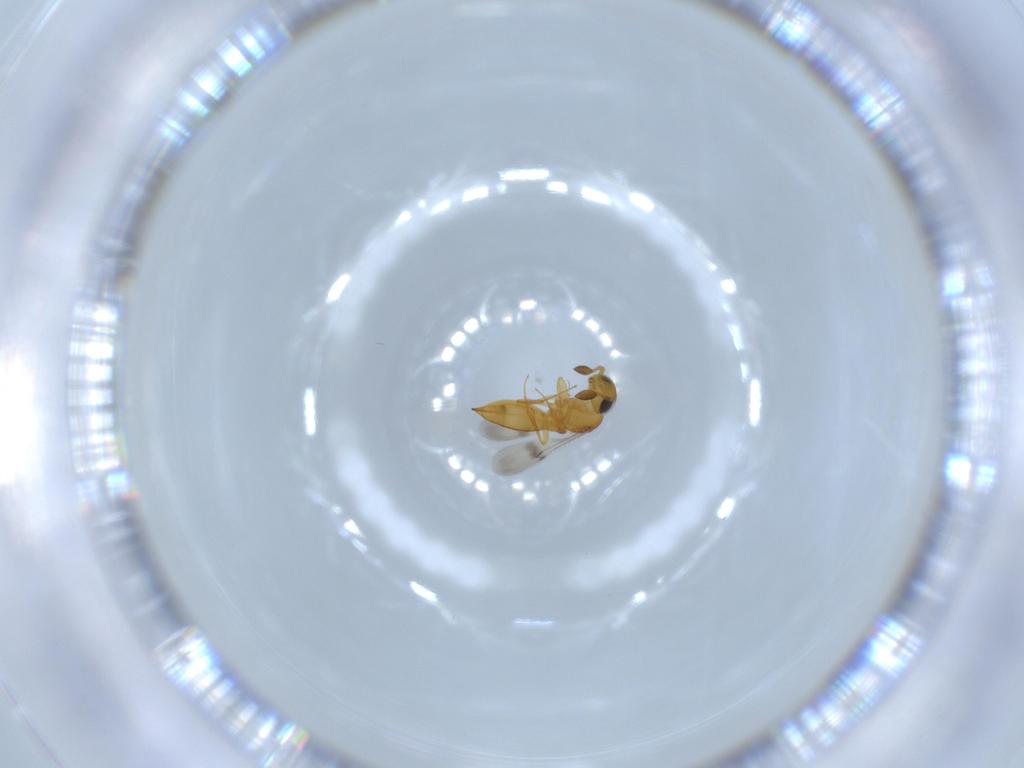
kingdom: Animalia
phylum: Arthropoda
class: Insecta
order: Hymenoptera
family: Scelionidae
